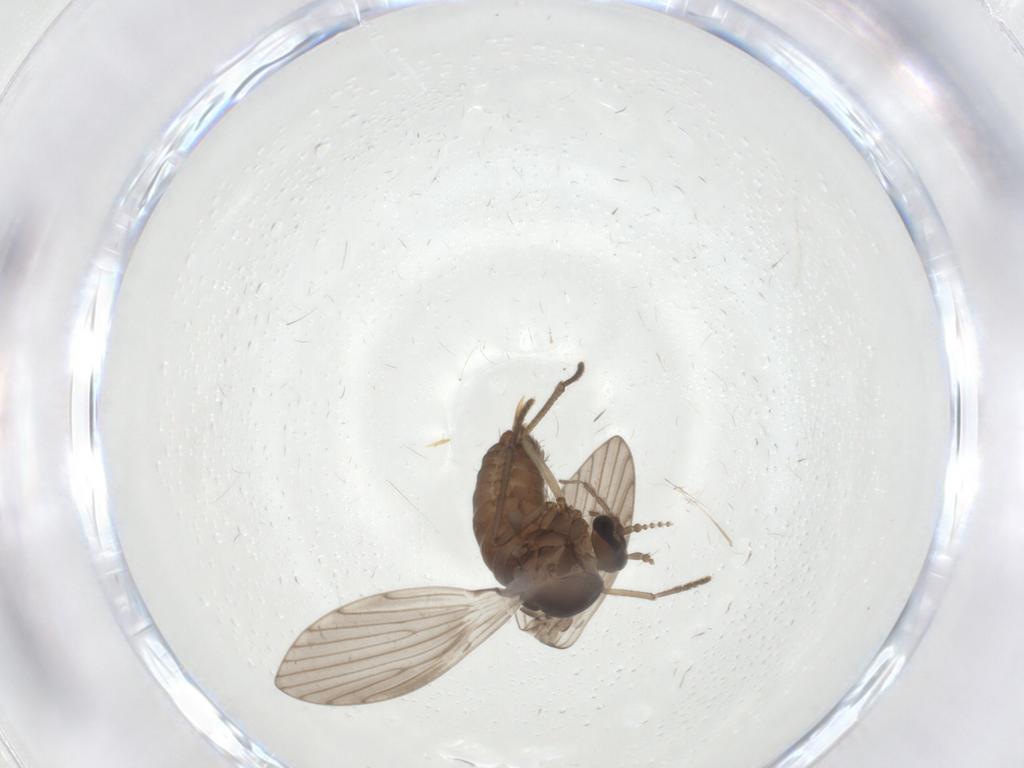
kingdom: Animalia
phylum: Arthropoda
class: Insecta
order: Diptera
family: Psychodidae
